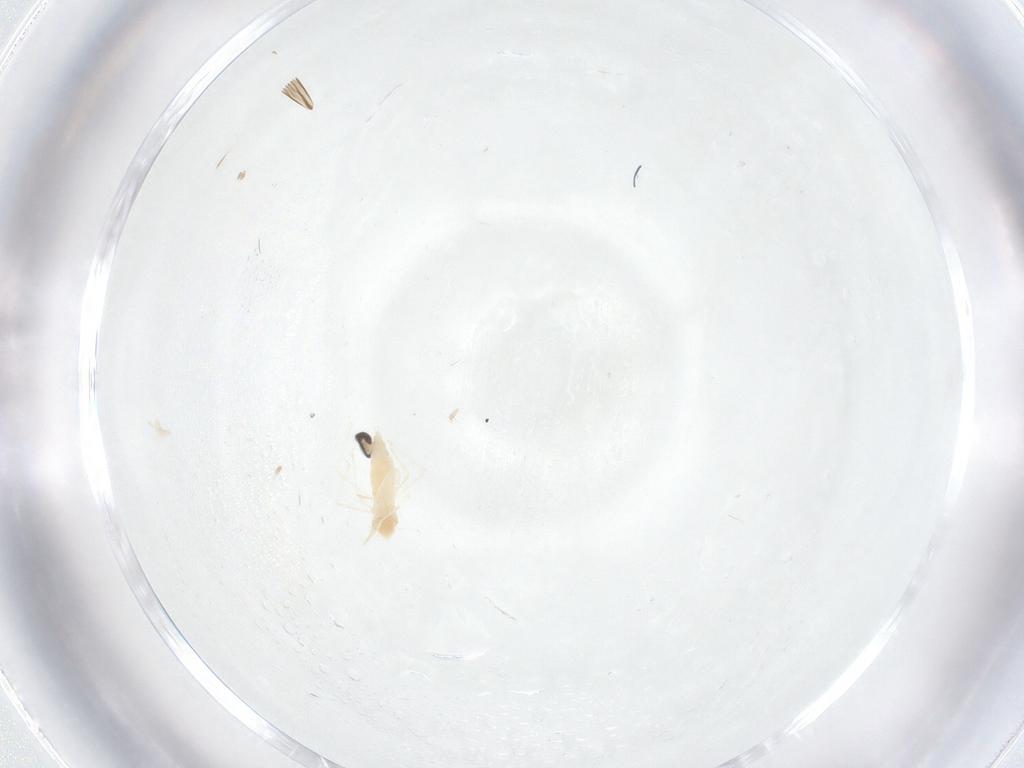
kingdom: Animalia
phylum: Arthropoda
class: Insecta
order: Diptera
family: Cecidomyiidae
